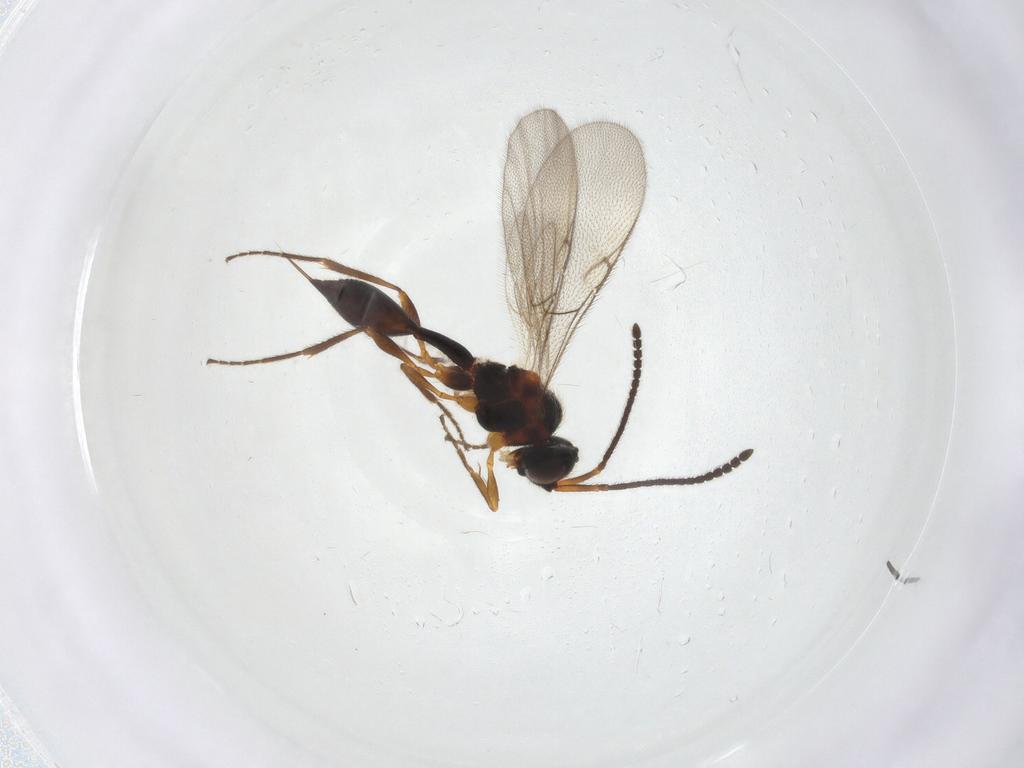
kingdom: Animalia
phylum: Arthropoda
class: Insecta
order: Hymenoptera
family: Diapriidae
